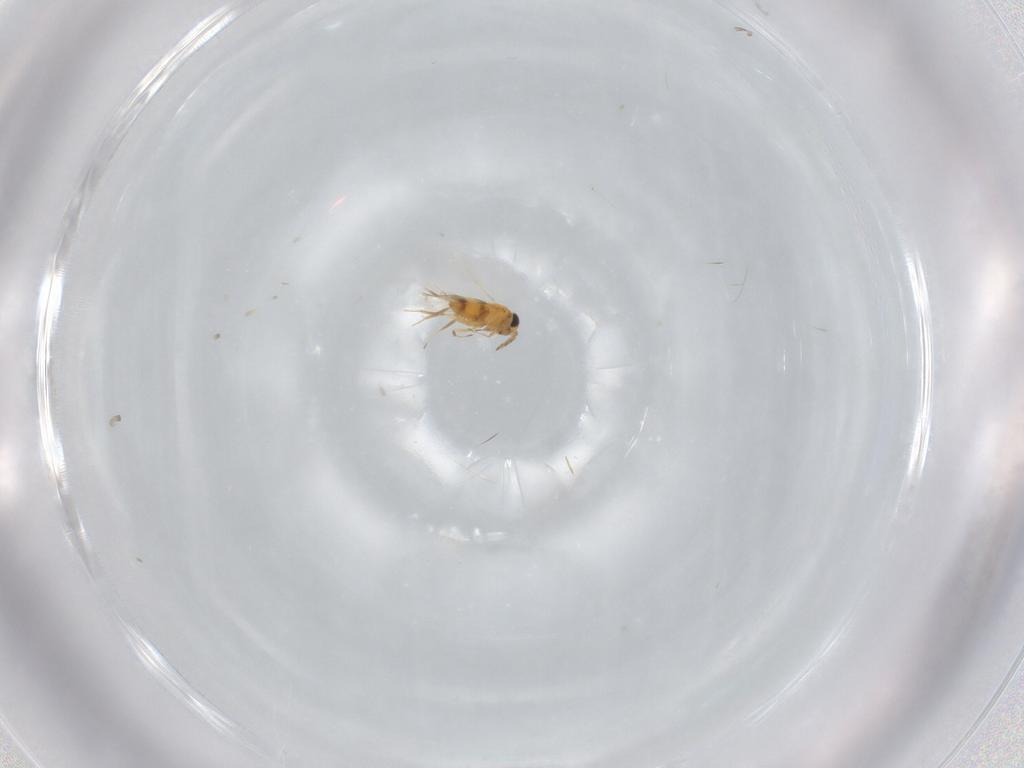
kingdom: Animalia
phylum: Arthropoda
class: Insecta
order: Hymenoptera
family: Aphelinidae
